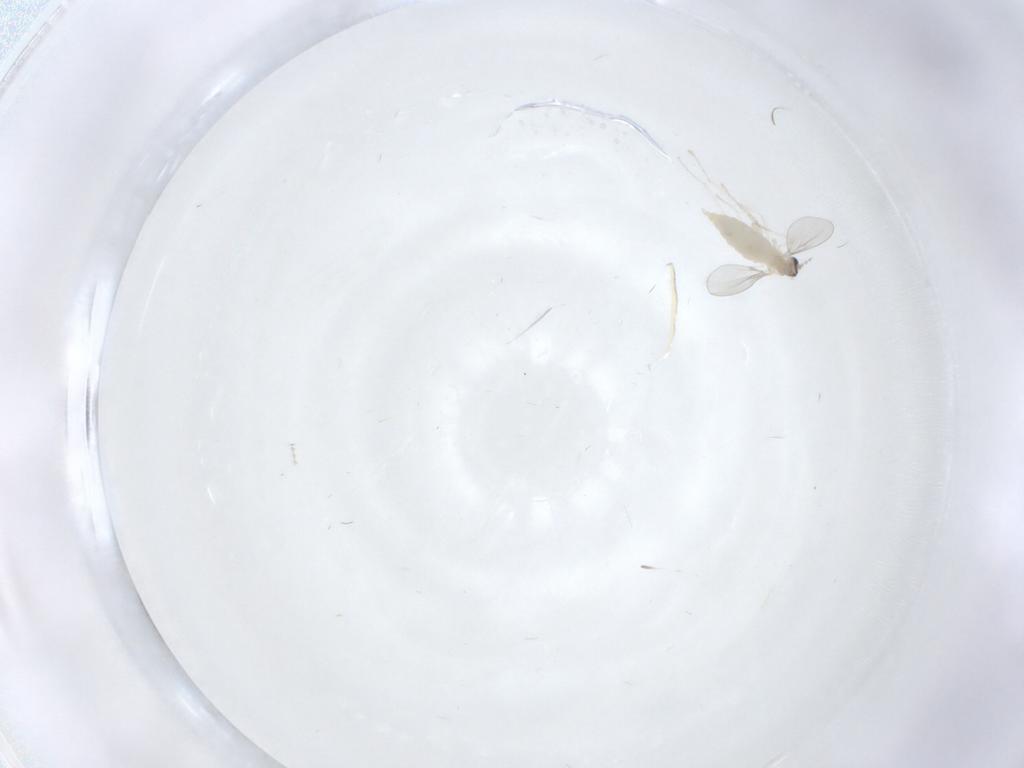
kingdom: Animalia
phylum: Arthropoda
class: Insecta
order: Diptera
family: Cecidomyiidae
